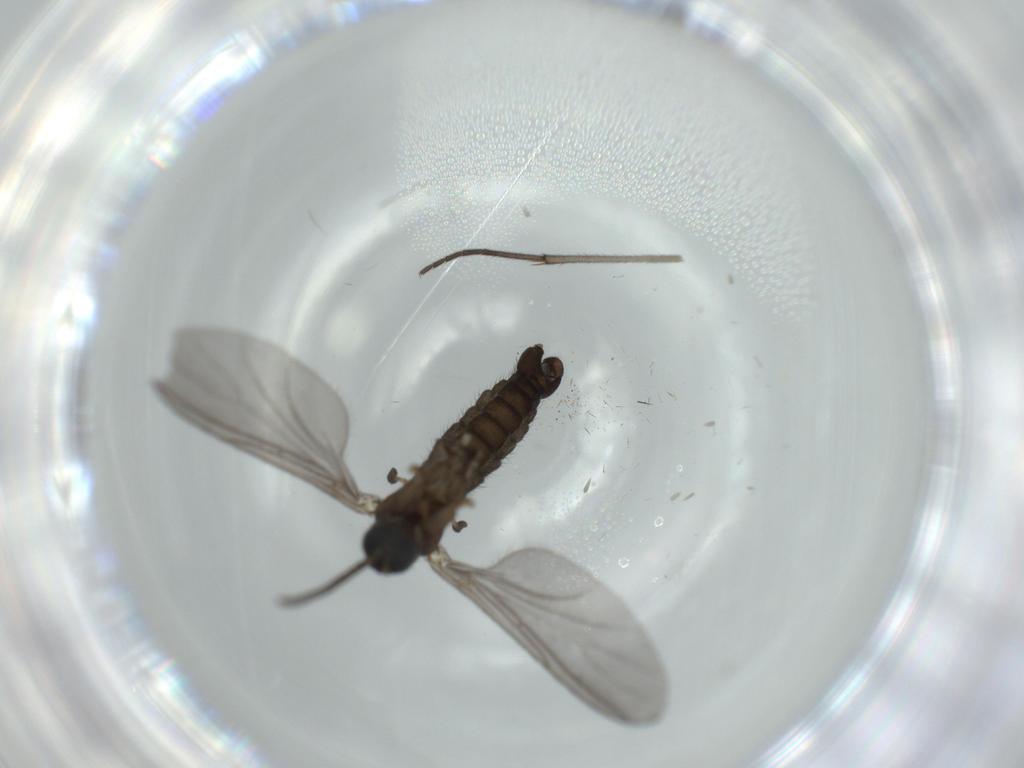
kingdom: Animalia
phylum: Arthropoda
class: Insecta
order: Diptera
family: Sciaridae
